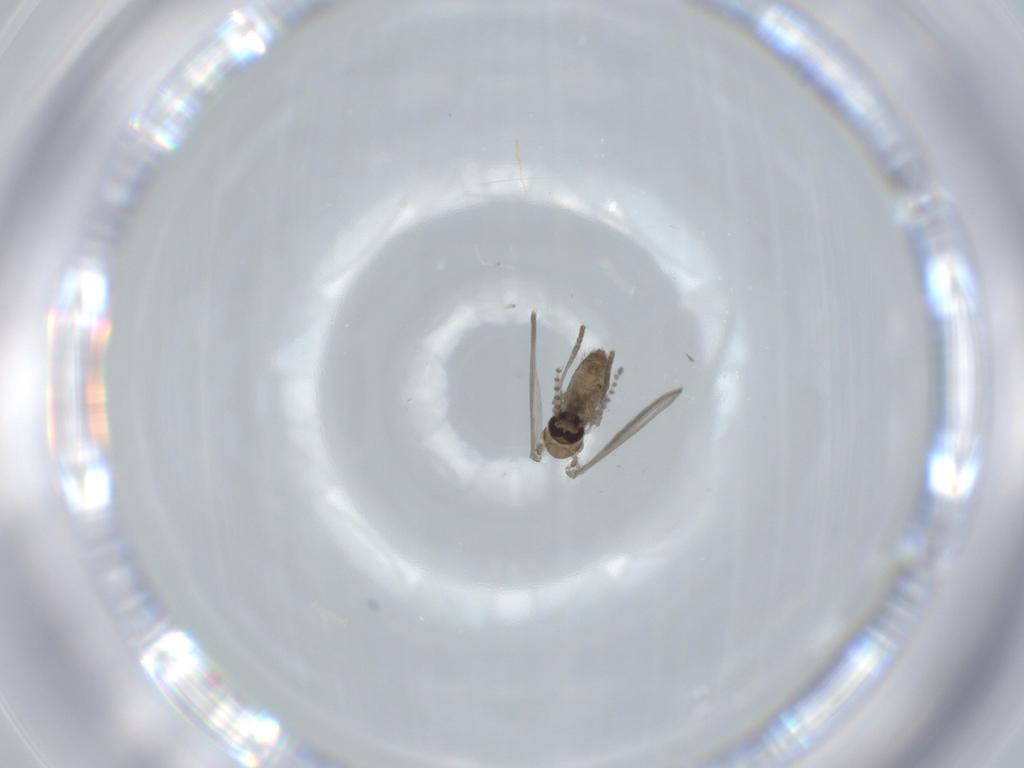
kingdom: Animalia
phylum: Arthropoda
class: Insecta
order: Diptera
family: Psychodidae
